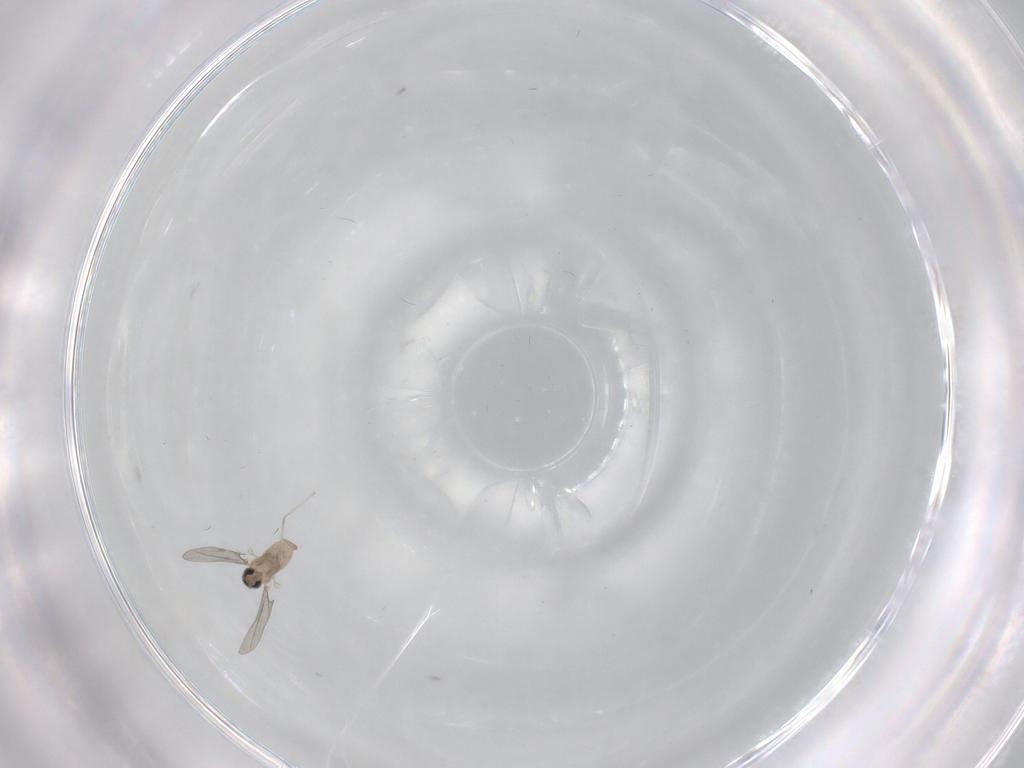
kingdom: Animalia
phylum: Arthropoda
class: Insecta
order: Diptera
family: Cecidomyiidae
